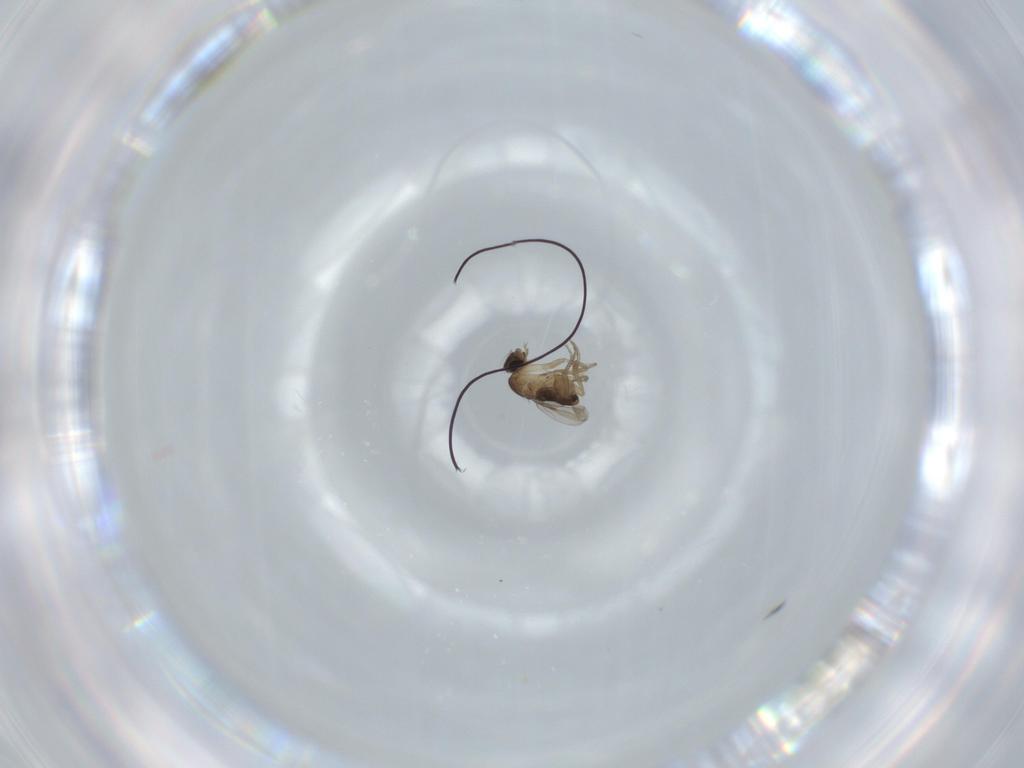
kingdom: Animalia
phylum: Arthropoda
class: Insecta
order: Diptera
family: Phoridae
